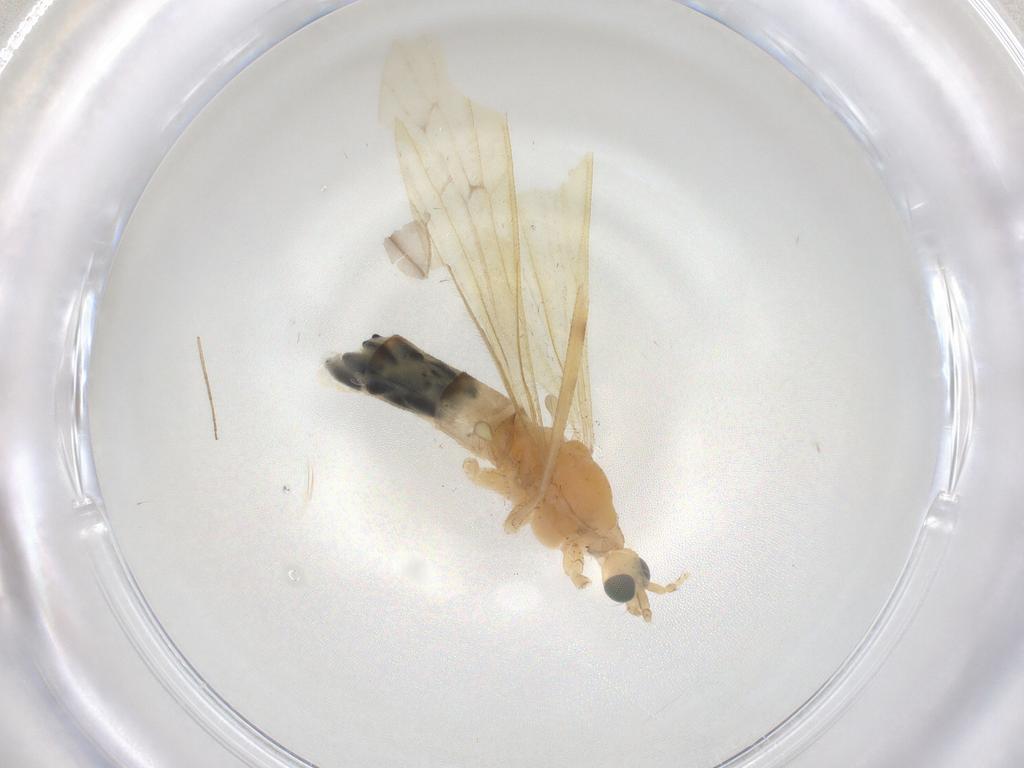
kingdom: Animalia
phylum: Arthropoda
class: Insecta
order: Diptera
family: Limoniidae
